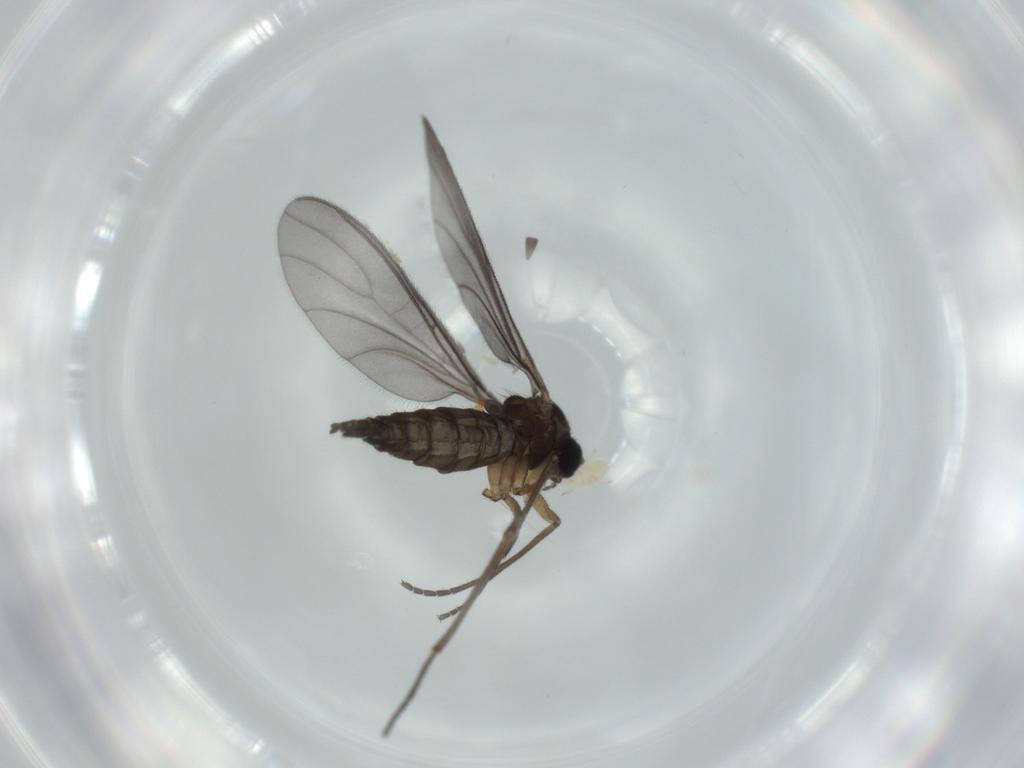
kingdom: Animalia
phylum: Arthropoda
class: Insecta
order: Diptera
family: Sciaridae
